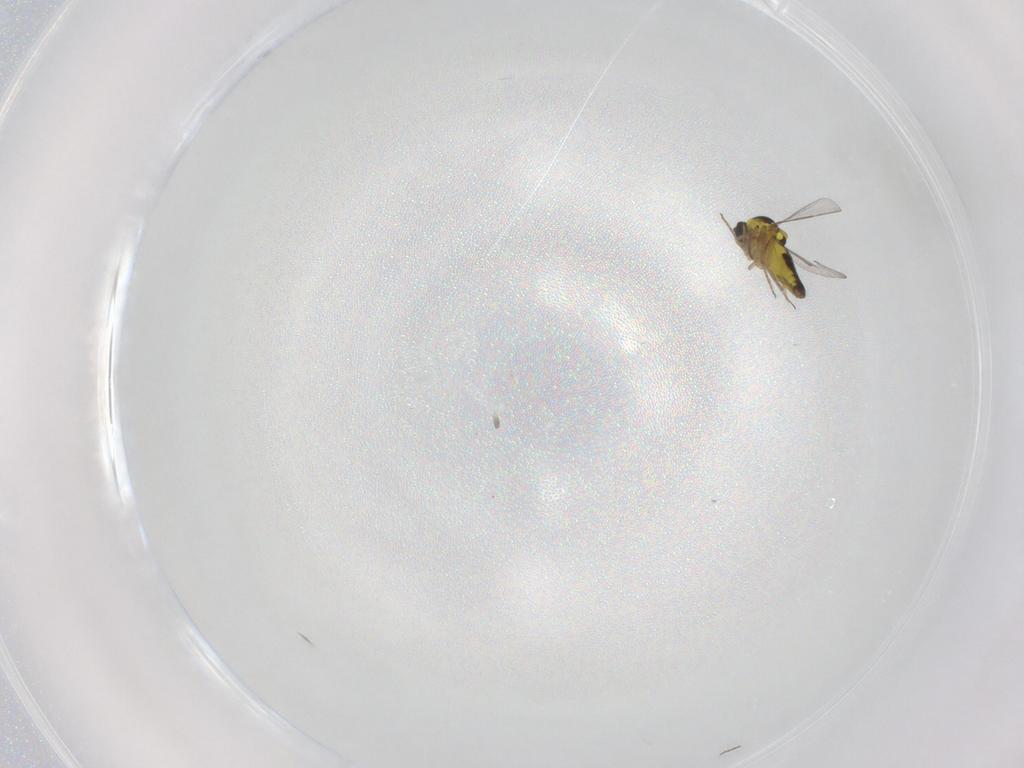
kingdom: Animalia
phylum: Arthropoda
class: Insecta
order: Diptera
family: Ceratopogonidae
